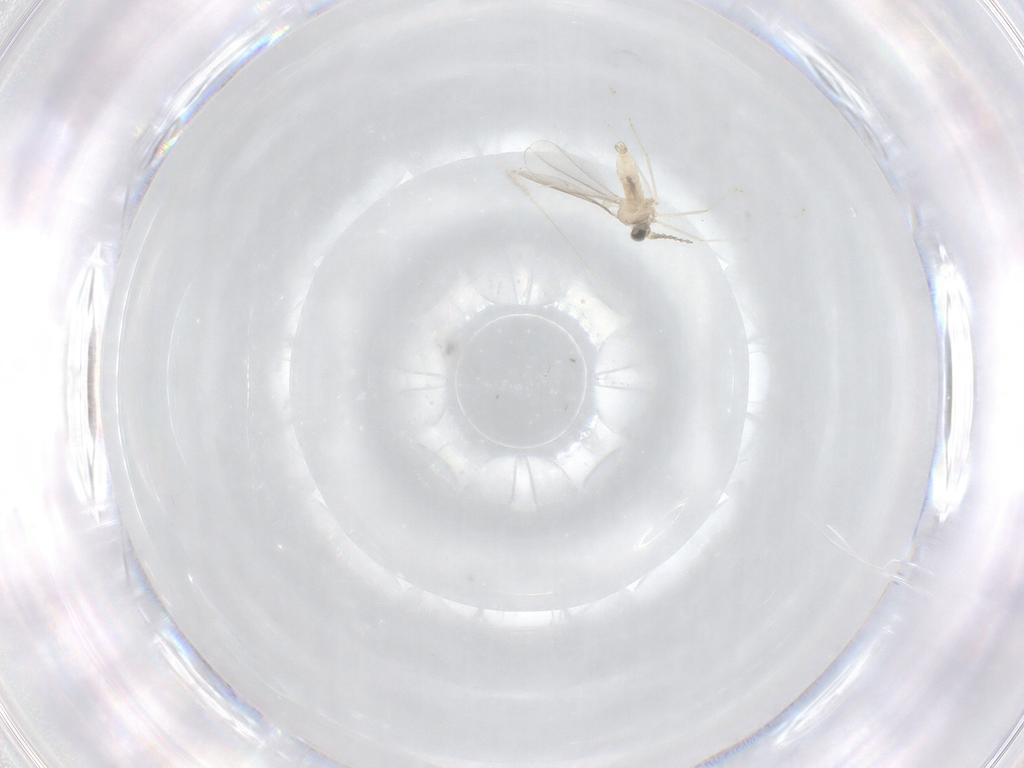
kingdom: Animalia
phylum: Arthropoda
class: Insecta
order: Diptera
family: Cecidomyiidae
